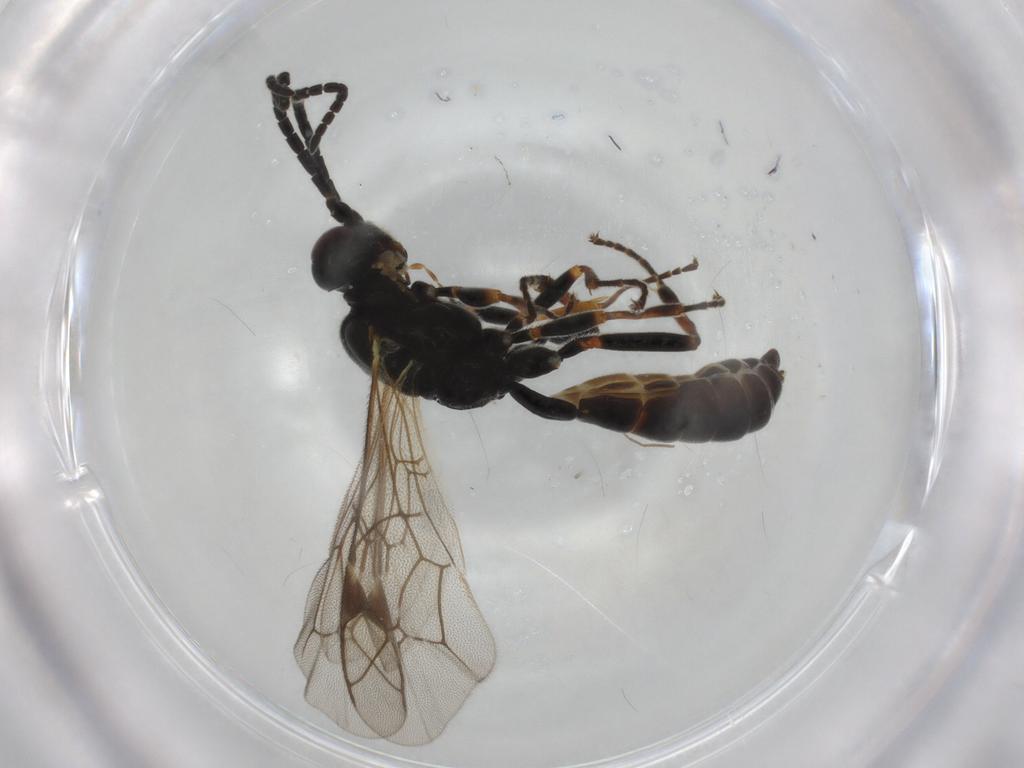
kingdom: Animalia
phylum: Arthropoda
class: Insecta
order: Hymenoptera
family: Ichneumonidae
